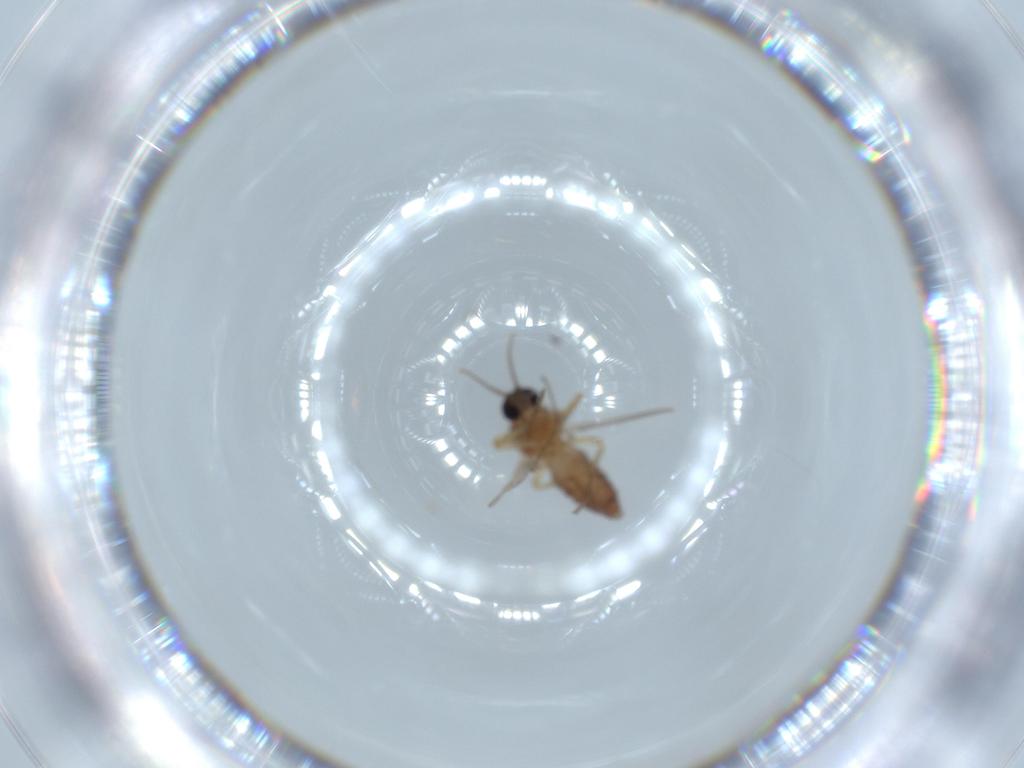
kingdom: Animalia
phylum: Arthropoda
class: Insecta
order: Diptera
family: Ceratopogonidae
